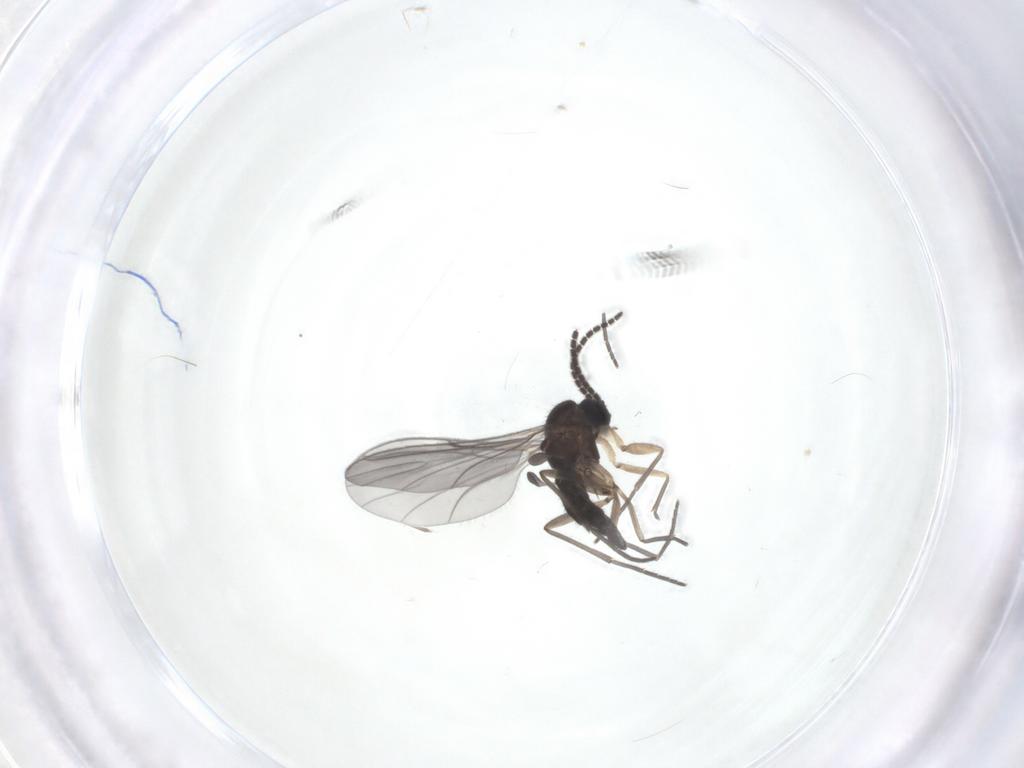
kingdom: Animalia
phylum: Arthropoda
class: Insecta
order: Diptera
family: Sciaridae
